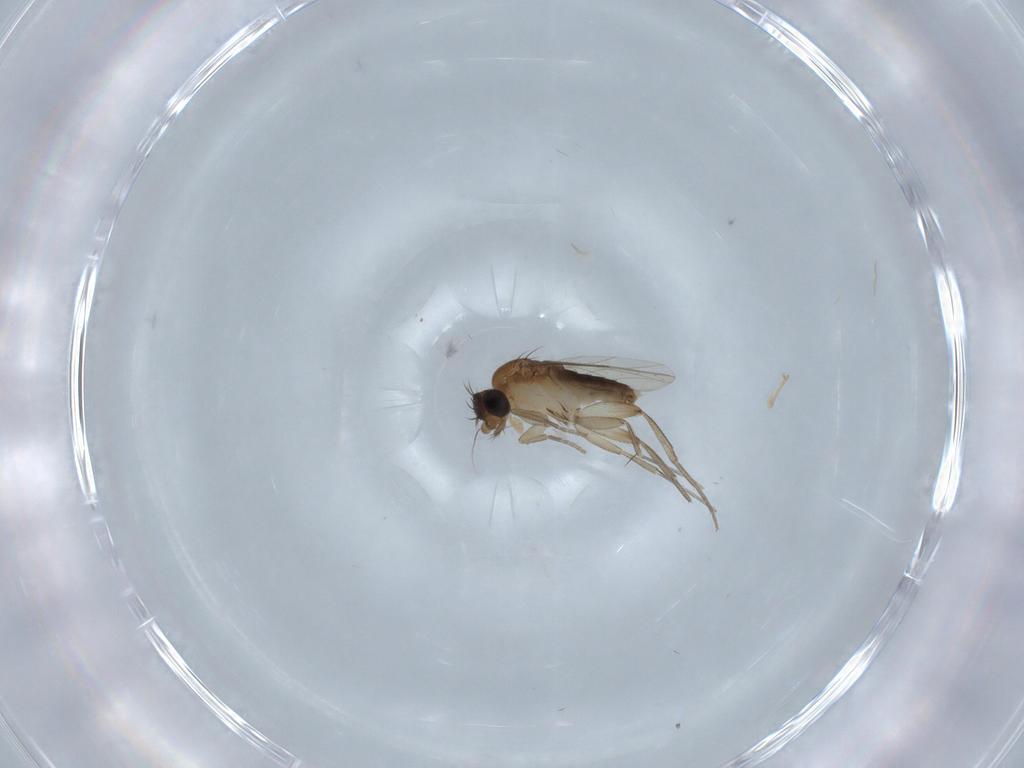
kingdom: Animalia
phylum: Arthropoda
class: Insecta
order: Diptera
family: Phoridae
